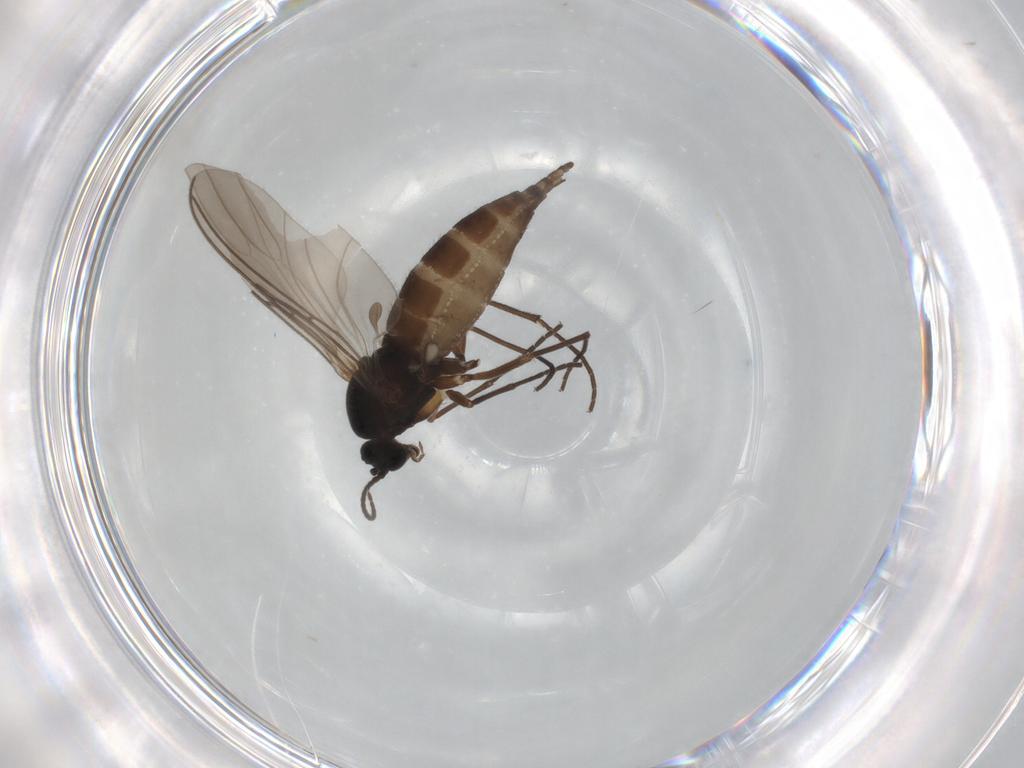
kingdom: Animalia
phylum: Arthropoda
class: Insecta
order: Diptera
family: Sciaridae
